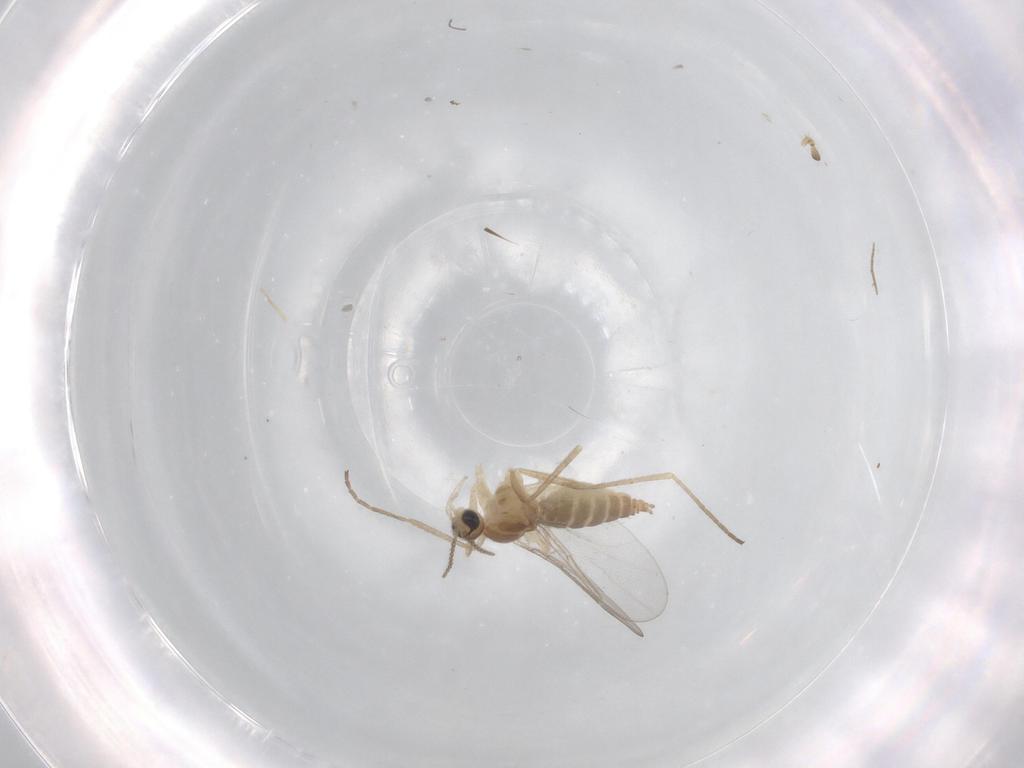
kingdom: Animalia
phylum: Arthropoda
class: Insecta
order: Diptera
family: Cecidomyiidae
